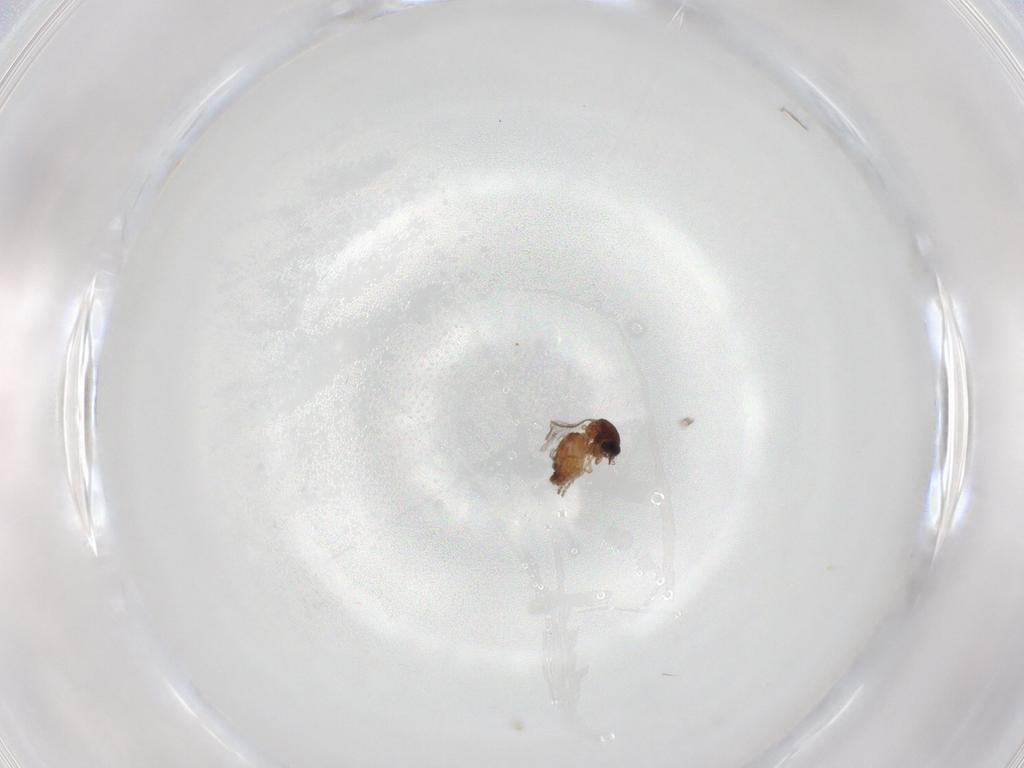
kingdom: Animalia
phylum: Arthropoda
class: Insecta
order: Diptera
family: Ceratopogonidae
